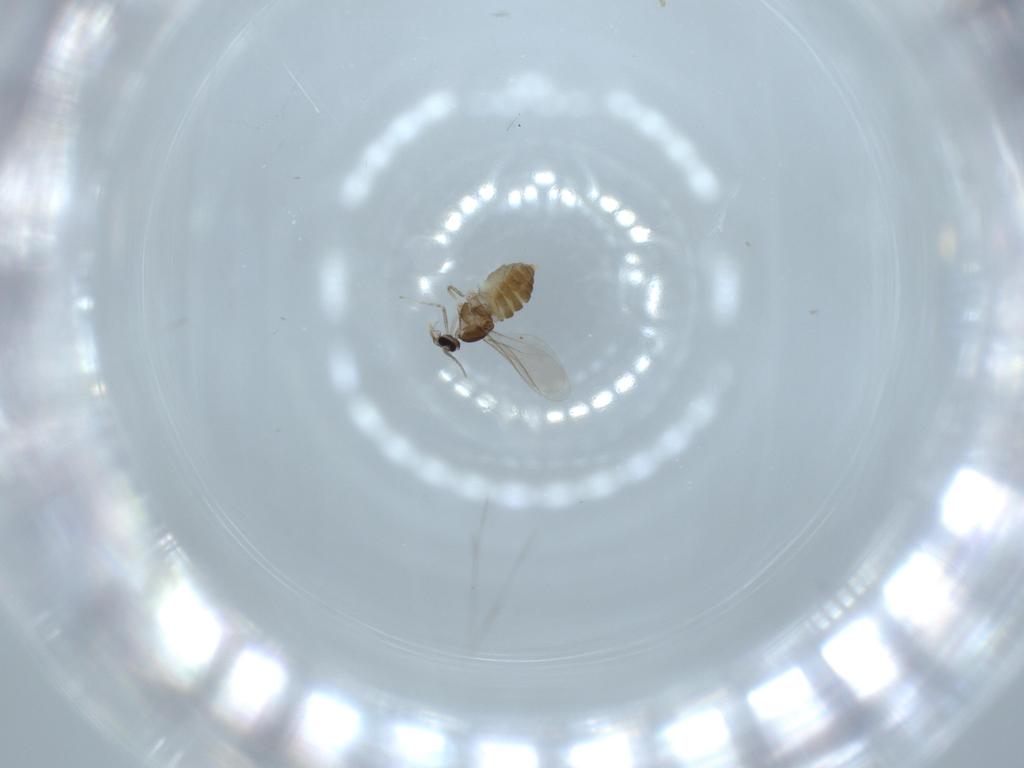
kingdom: Animalia
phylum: Arthropoda
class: Insecta
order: Diptera
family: Cecidomyiidae
